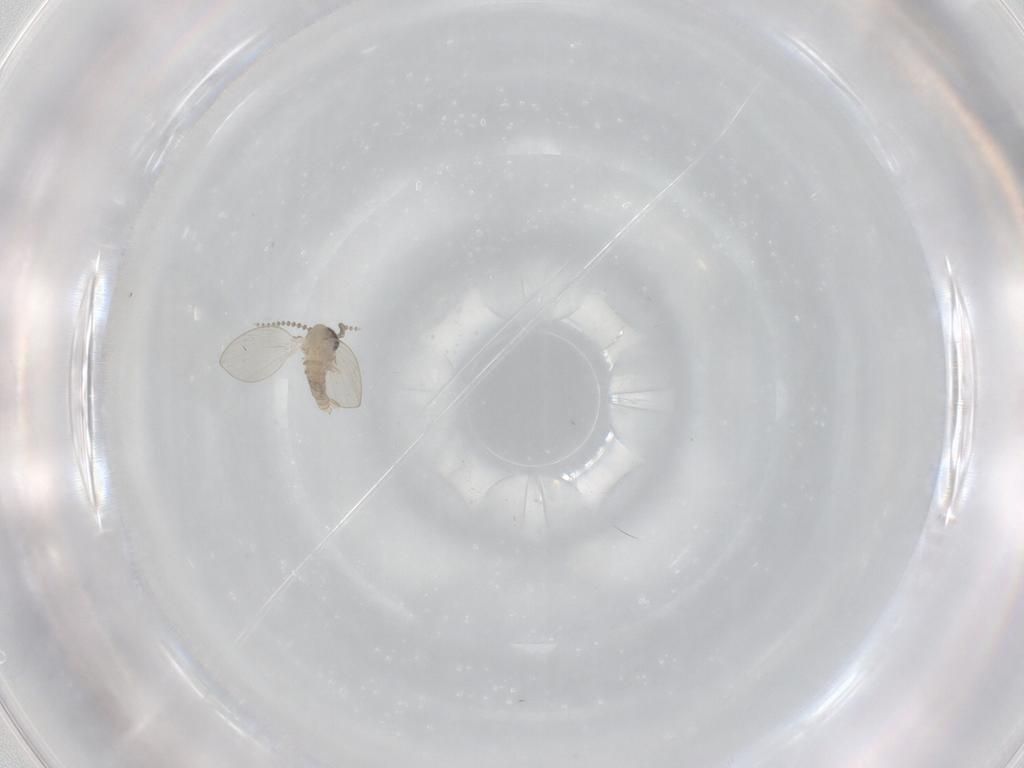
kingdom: Animalia
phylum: Arthropoda
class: Insecta
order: Diptera
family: Psychodidae
